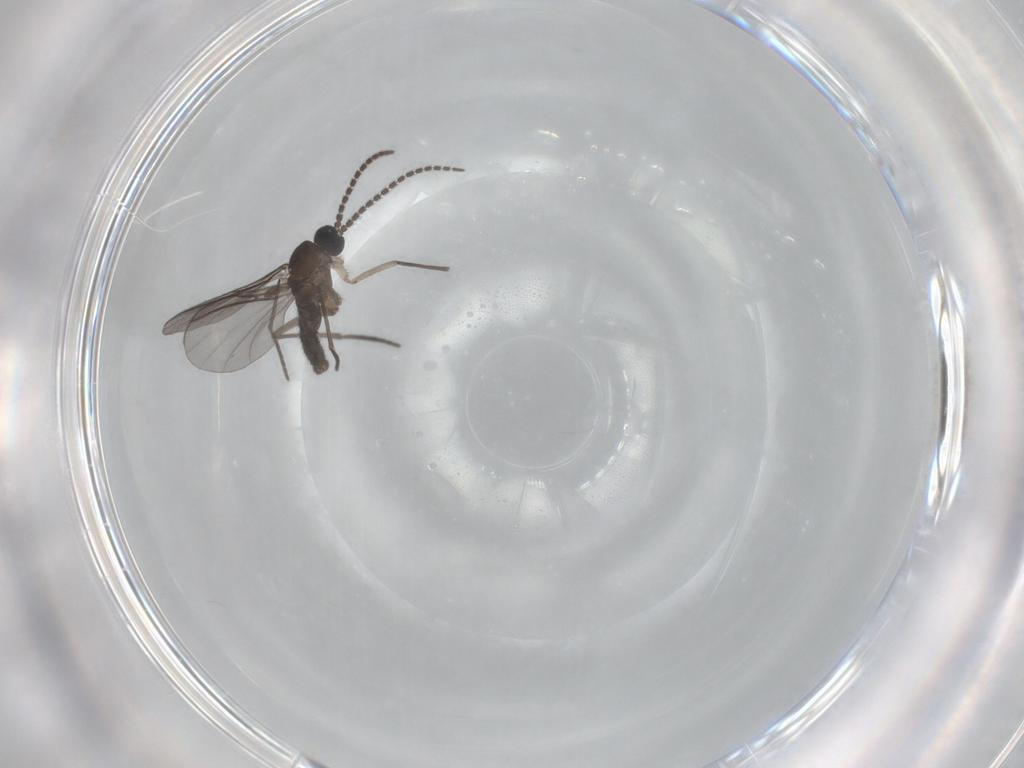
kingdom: Animalia
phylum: Arthropoda
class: Insecta
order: Diptera
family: Dolichopodidae
